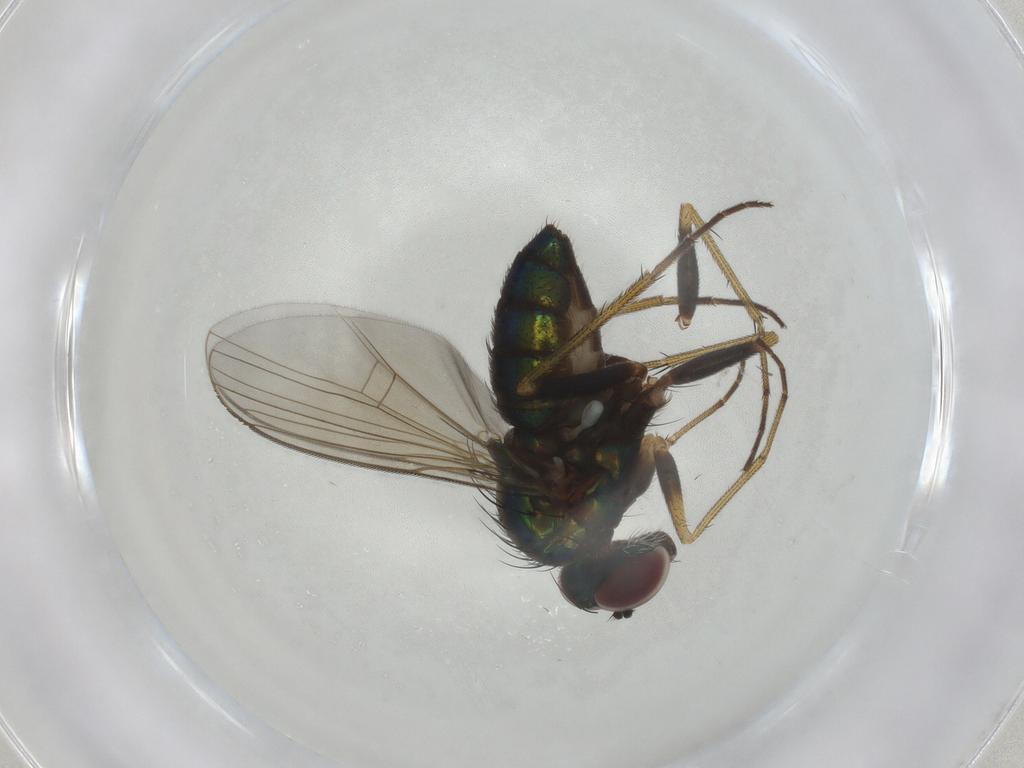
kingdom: Animalia
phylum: Arthropoda
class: Insecta
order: Diptera
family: Dolichopodidae
